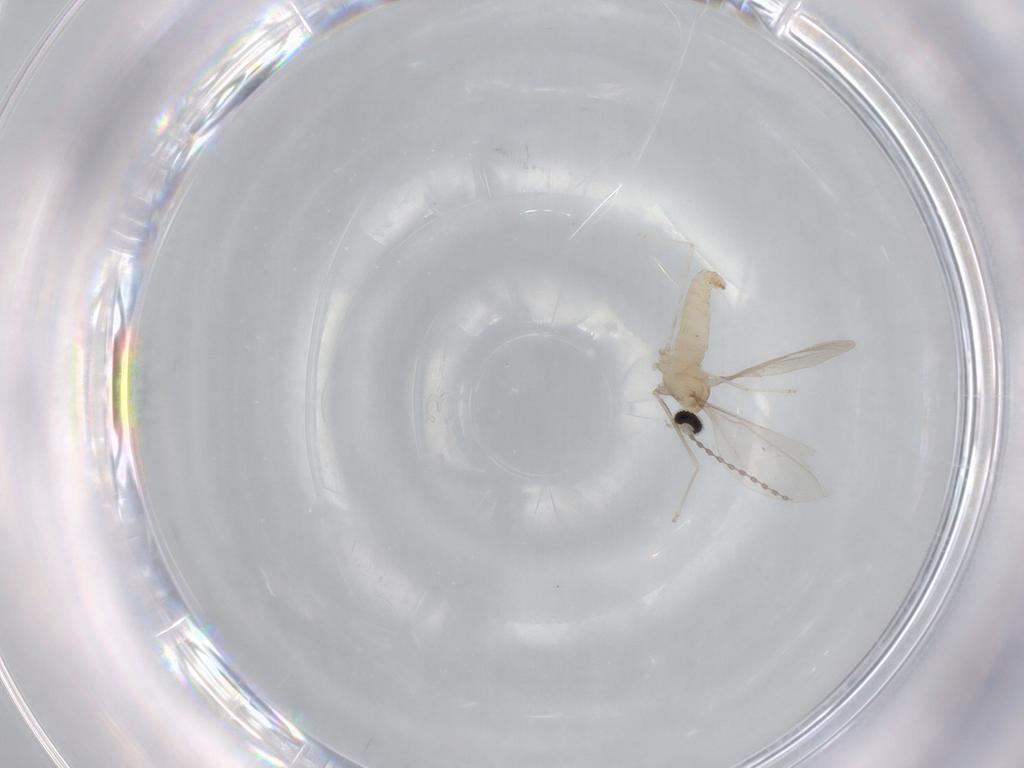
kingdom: Animalia
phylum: Arthropoda
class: Insecta
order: Diptera
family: Cecidomyiidae
